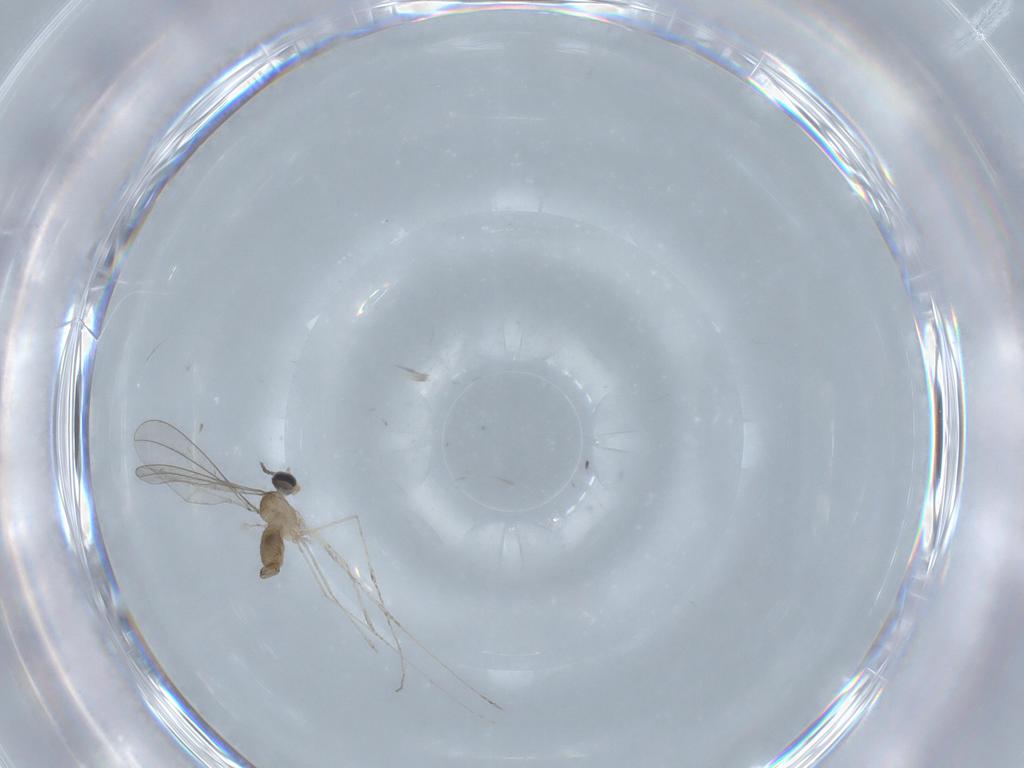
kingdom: Animalia
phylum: Arthropoda
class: Insecta
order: Diptera
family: Cecidomyiidae
